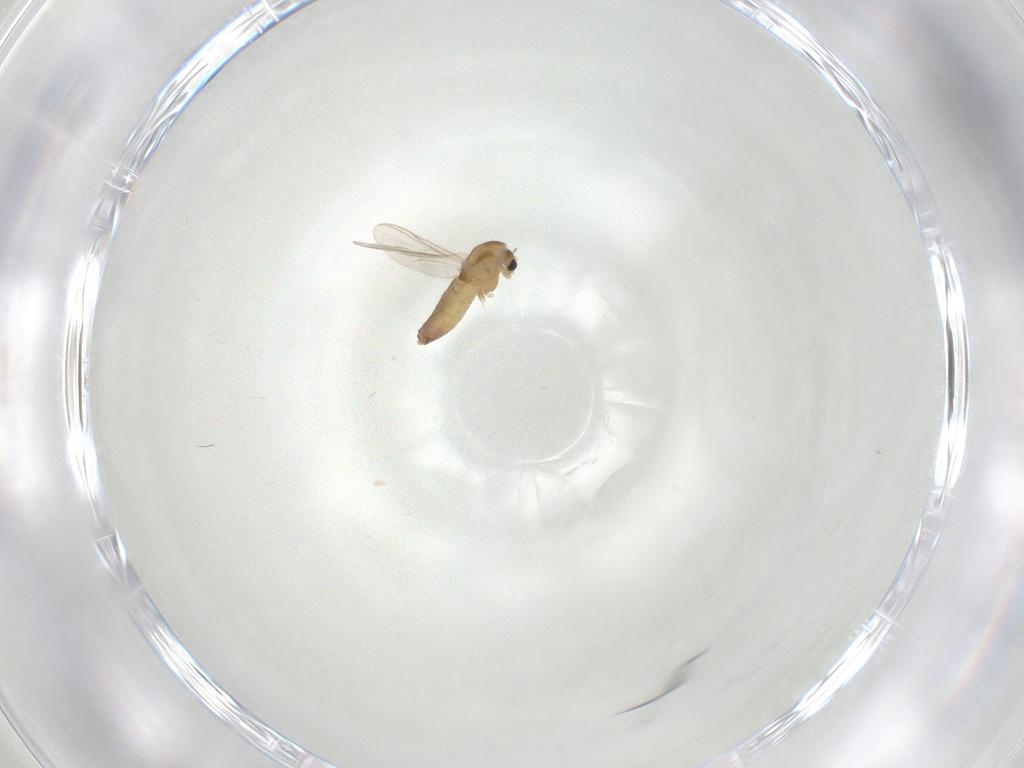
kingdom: Animalia
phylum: Arthropoda
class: Insecta
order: Diptera
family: Chironomidae
